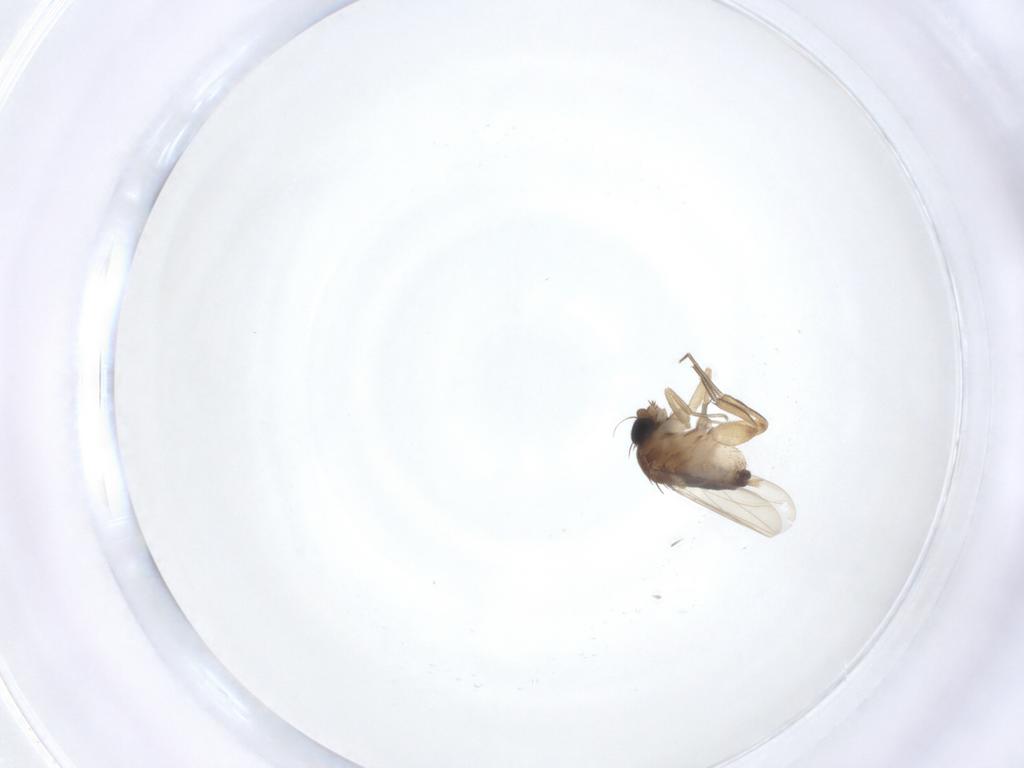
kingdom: Animalia
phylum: Arthropoda
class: Insecta
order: Diptera
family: Phoridae
